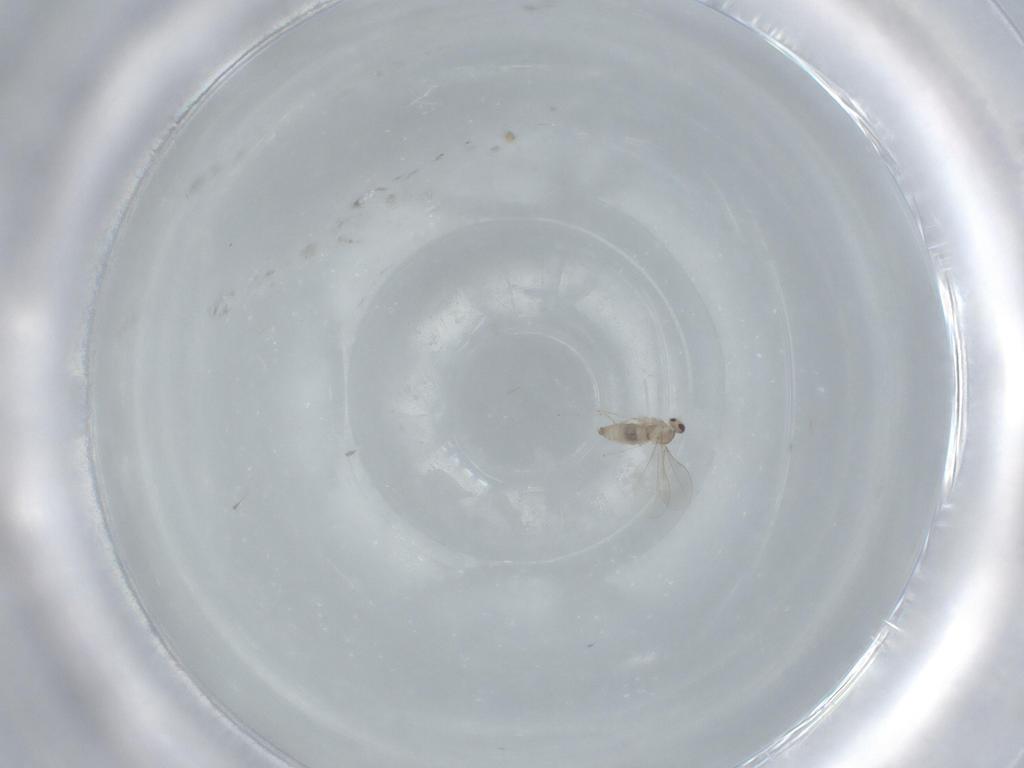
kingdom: Animalia
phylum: Arthropoda
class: Insecta
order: Diptera
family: Cecidomyiidae
